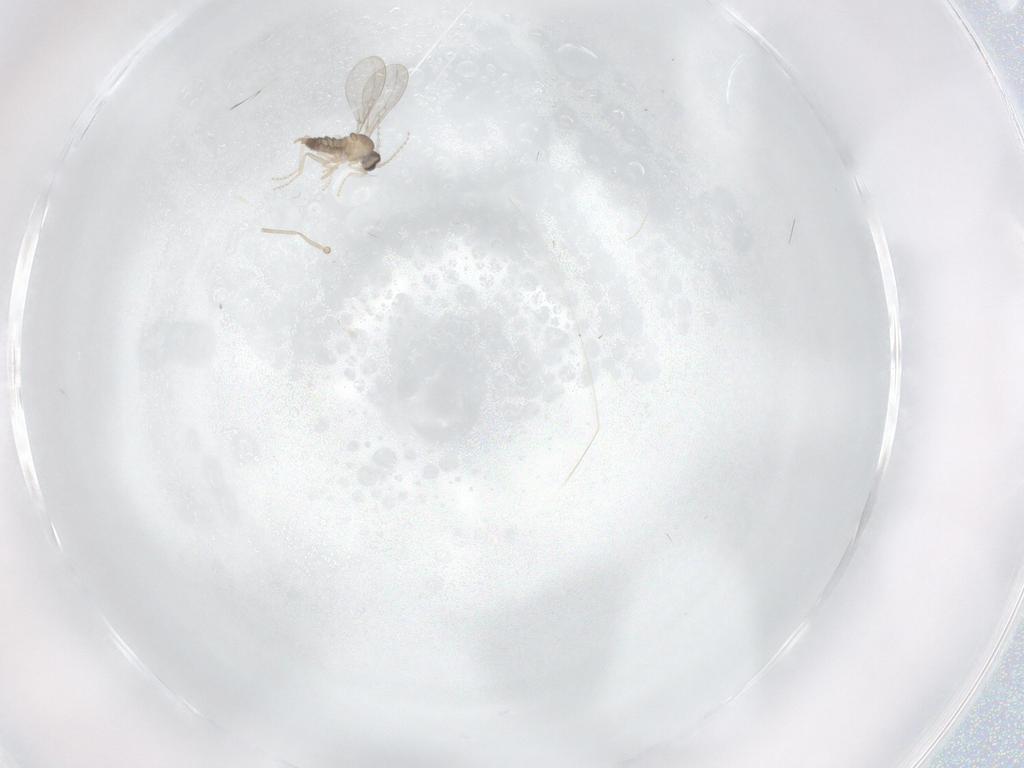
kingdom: Animalia
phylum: Arthropoda
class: Insecta
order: Diptera
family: Cecidomyiidae
